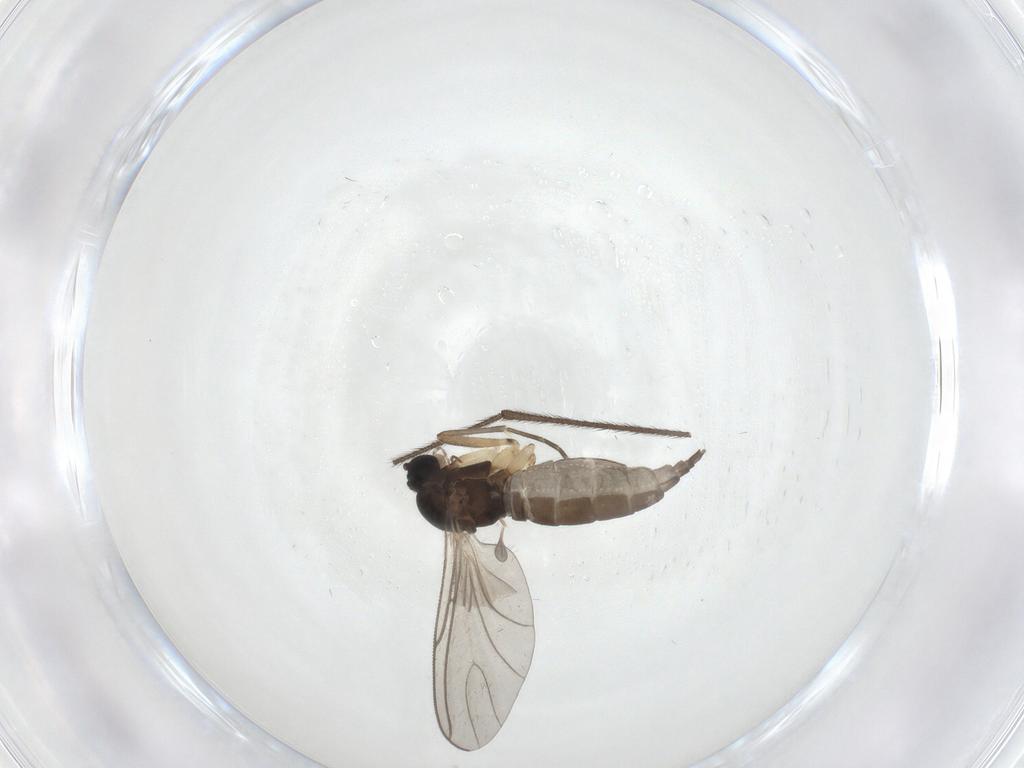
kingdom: Animalia
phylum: Arthropoda
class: Insecta
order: Diptera
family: Sciaridae
